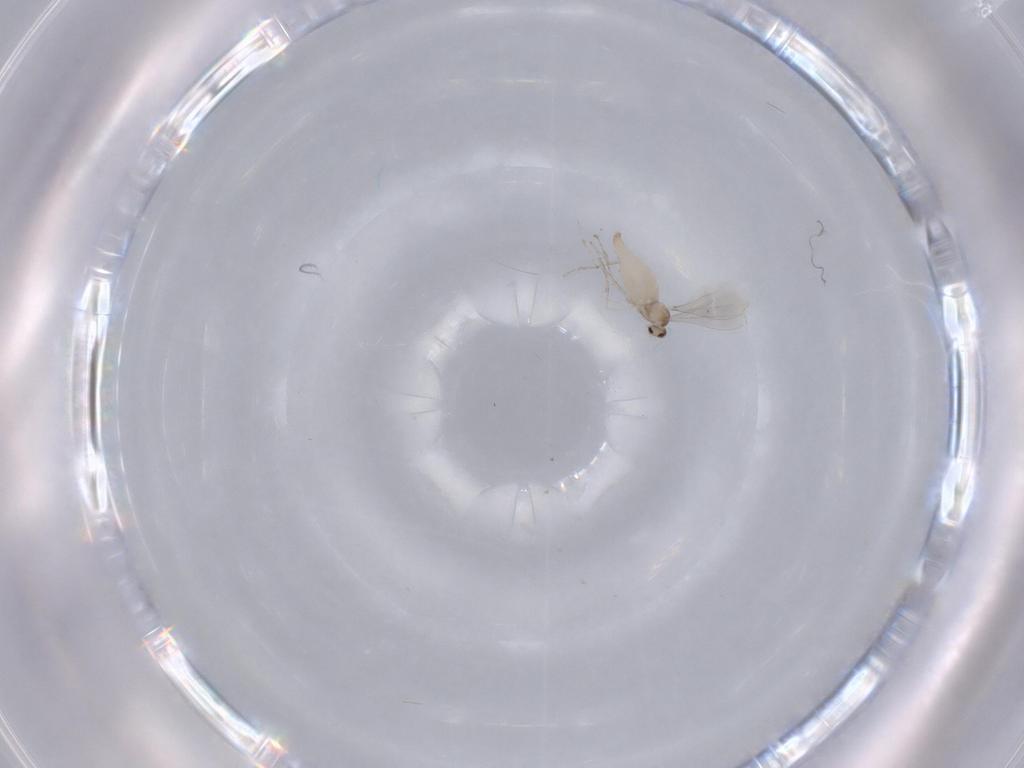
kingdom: Animalia
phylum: Arthropoda
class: Insecta
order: Diptera
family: Cecidomyiidae
